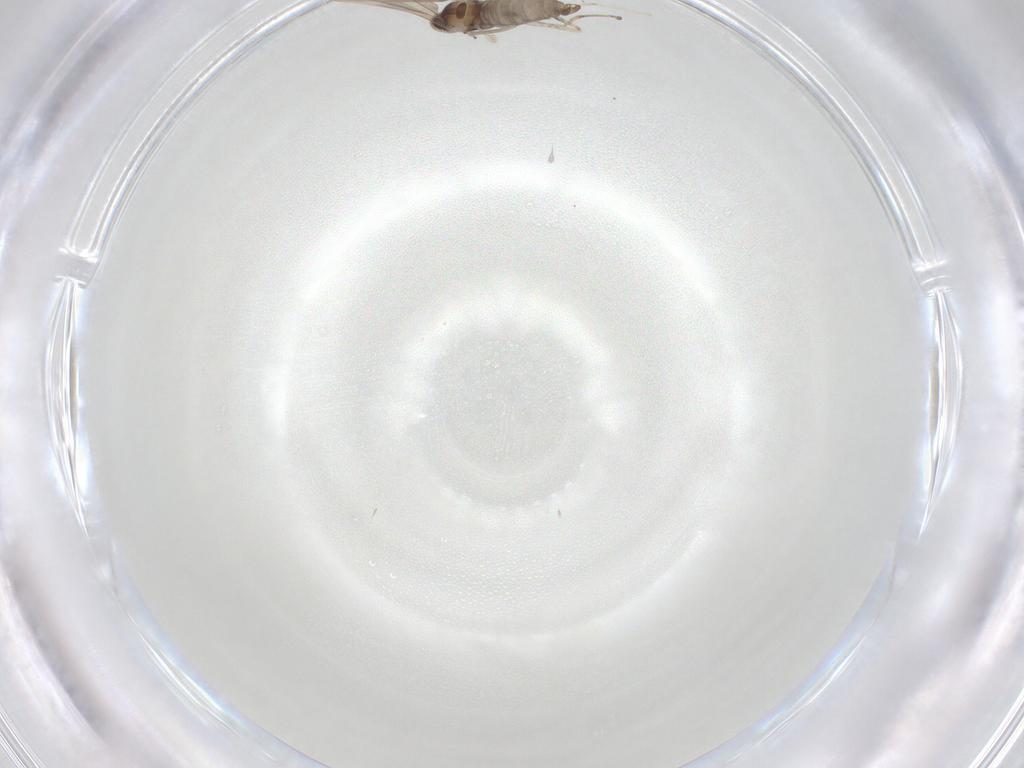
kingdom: Animalia
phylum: Arthropoda
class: Insecta
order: Diptera
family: Cecidomyiidae
